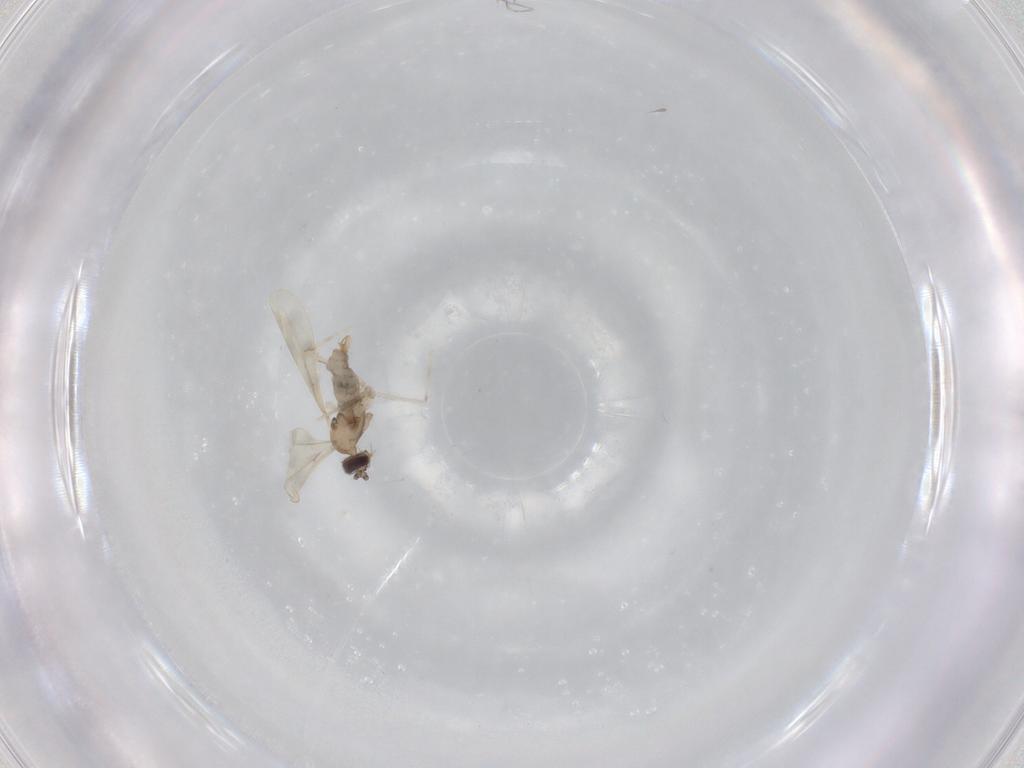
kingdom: Animalia
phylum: Arthropoda
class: Insecta
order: Diptera
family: Cecidomyiidae
